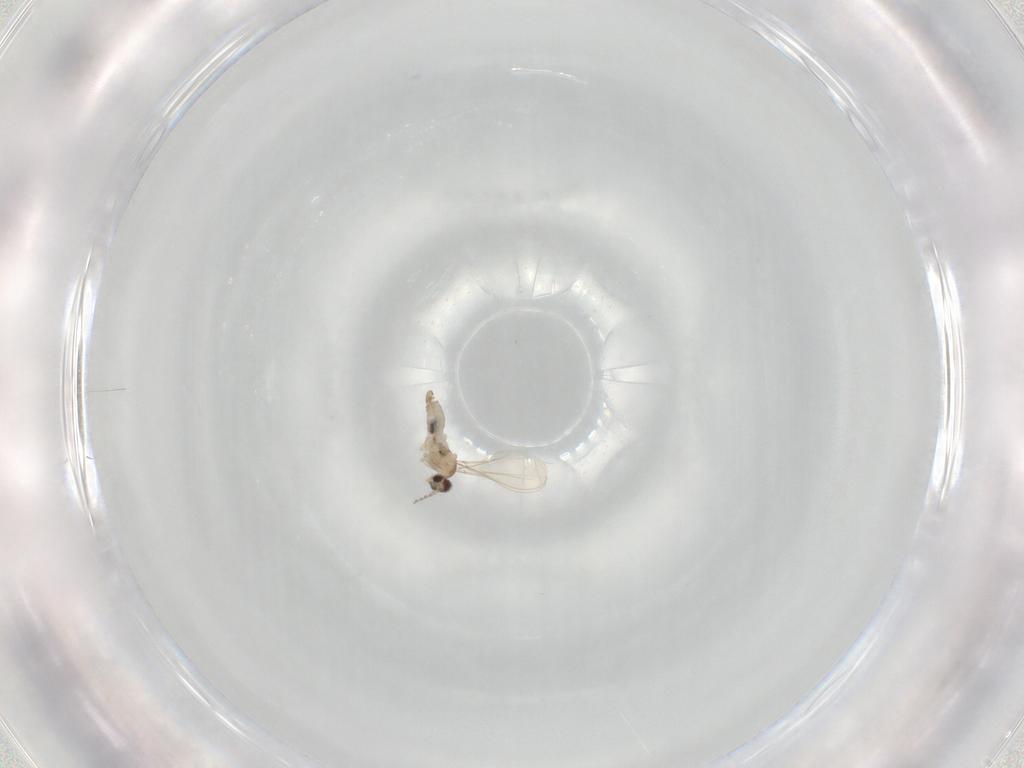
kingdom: Animalia
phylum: Arthropoda
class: Insecta
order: Diptera
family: Cecidomyiidae
